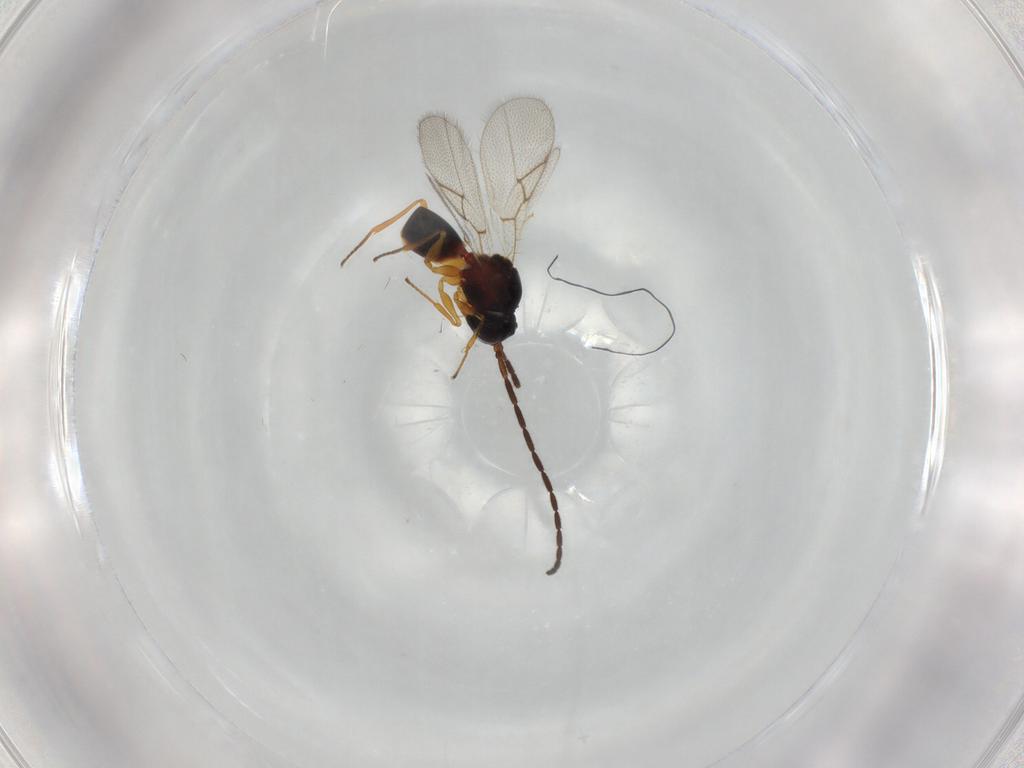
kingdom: Animalia
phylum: Arthropoda
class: Insecta
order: Hymenoptera
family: Figitidae
